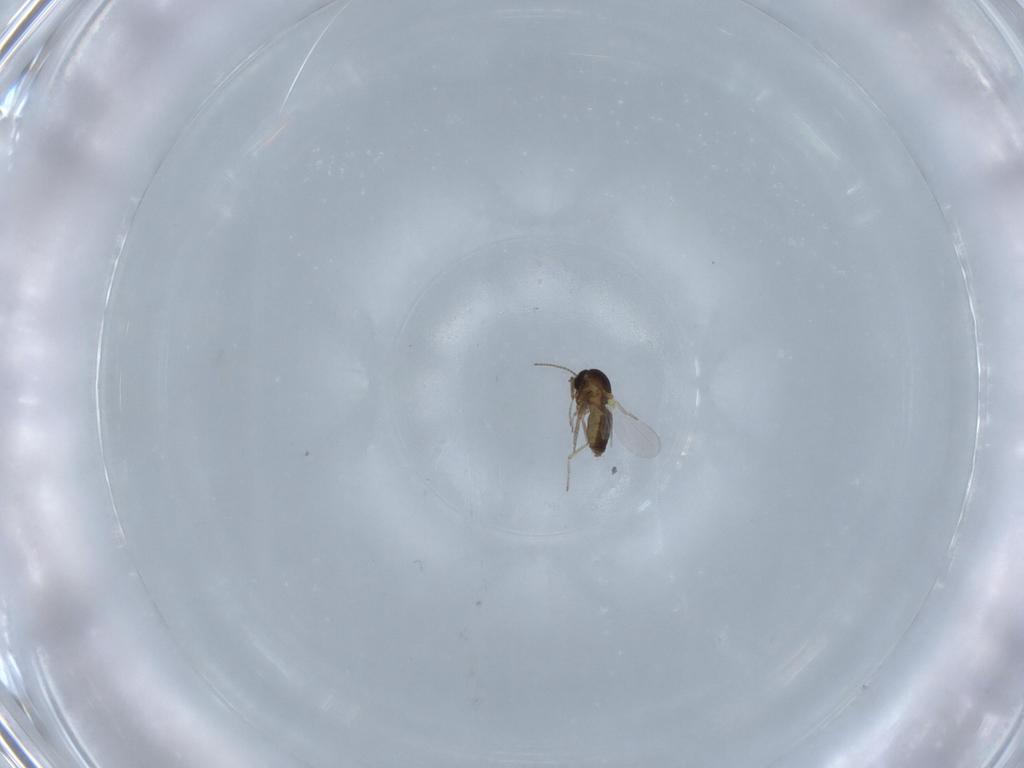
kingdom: Animalia
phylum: Arthropoda
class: Insecta
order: Diptera
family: Ceratopogonidae
